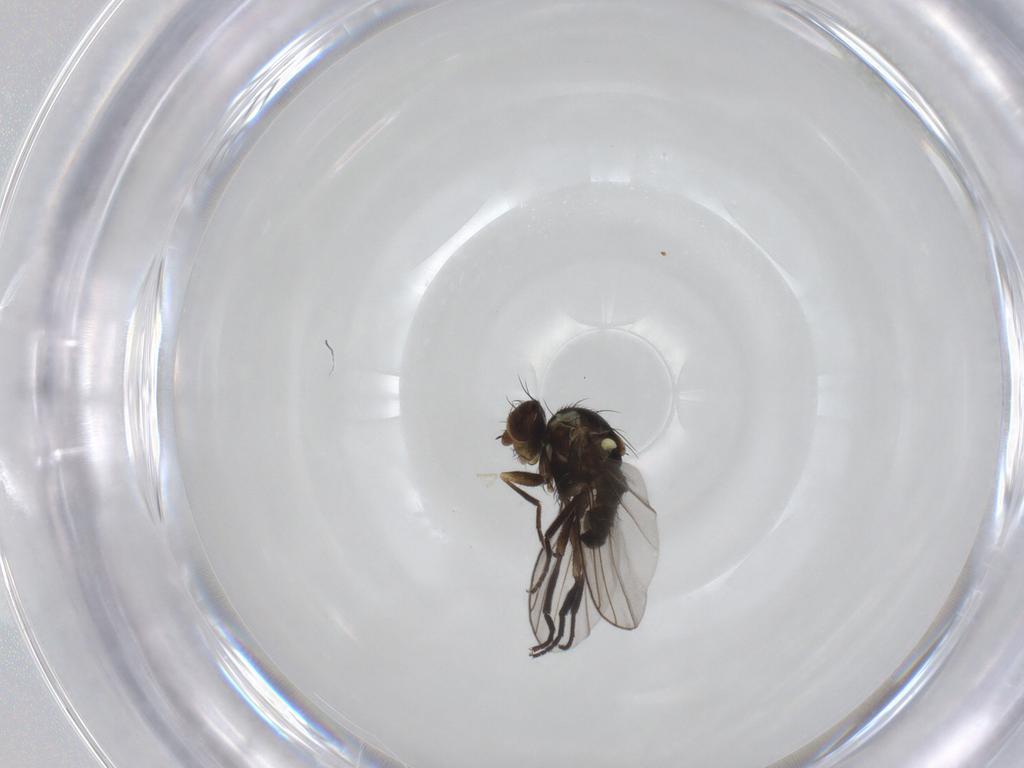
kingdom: Animalia
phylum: Arthropoda
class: Insecta
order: Diptera
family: Agromyzidae
